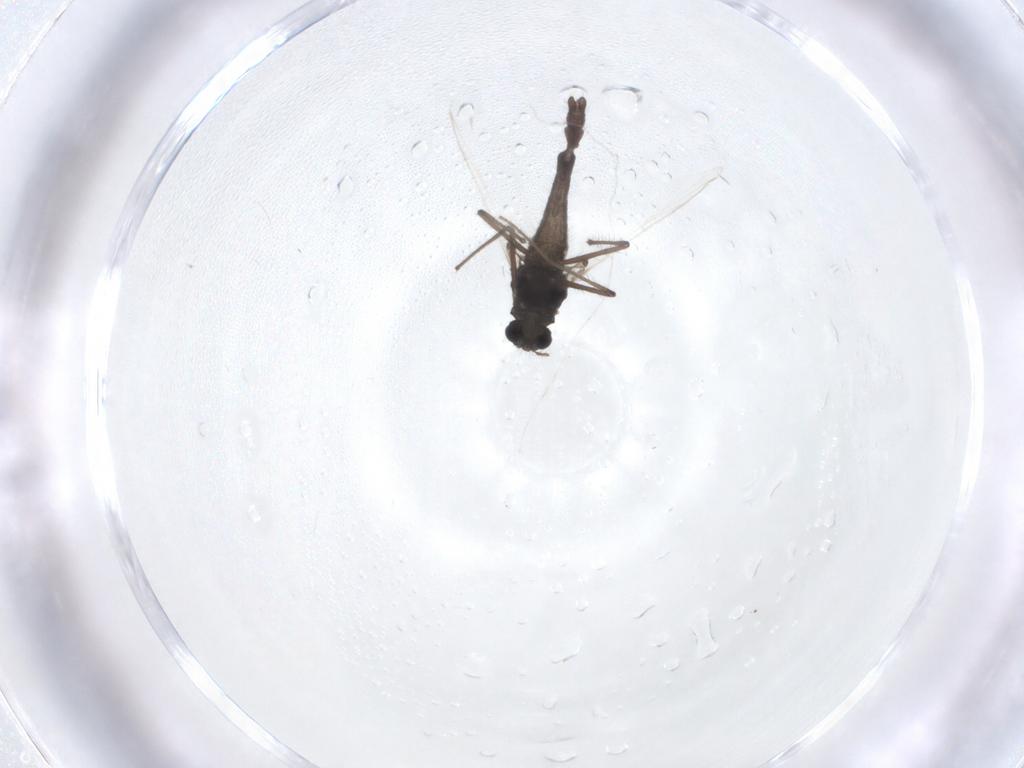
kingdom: Animalia
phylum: Arthropoda
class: Insecta
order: Diptera
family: Chironomidae
